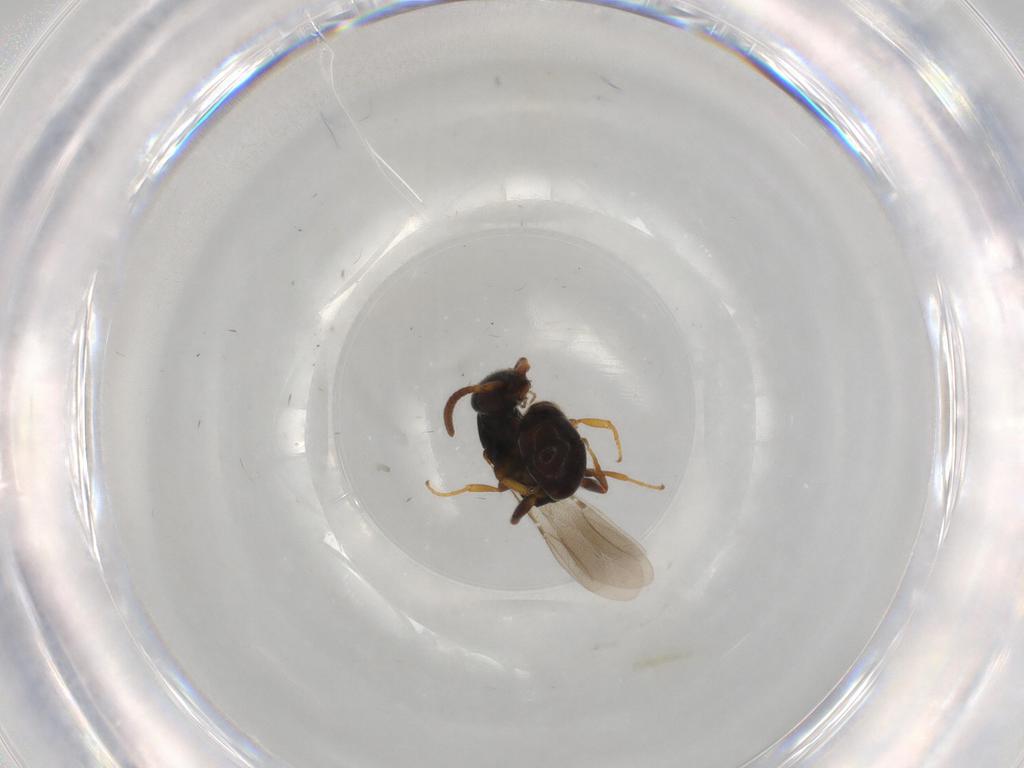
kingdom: Animalia
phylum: Arthropoda
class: Insecta
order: Hymenoptera
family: Bethylidae
